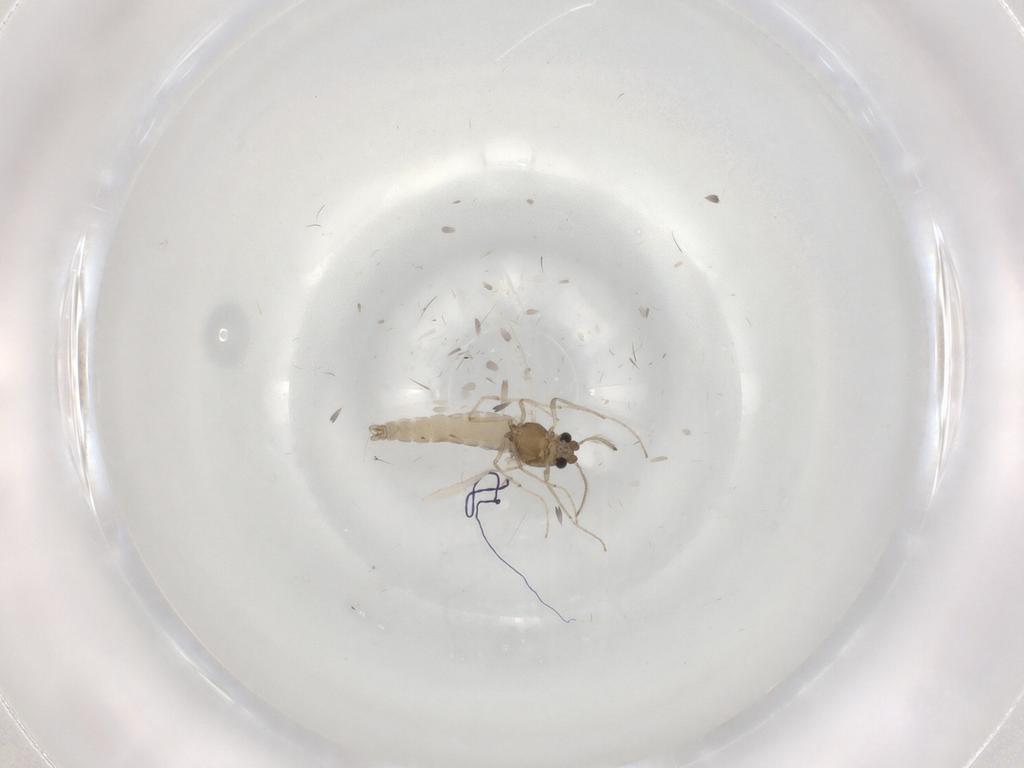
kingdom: Animalia
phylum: Arthropoda
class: Insecta
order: Diptera
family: Chironomidae
